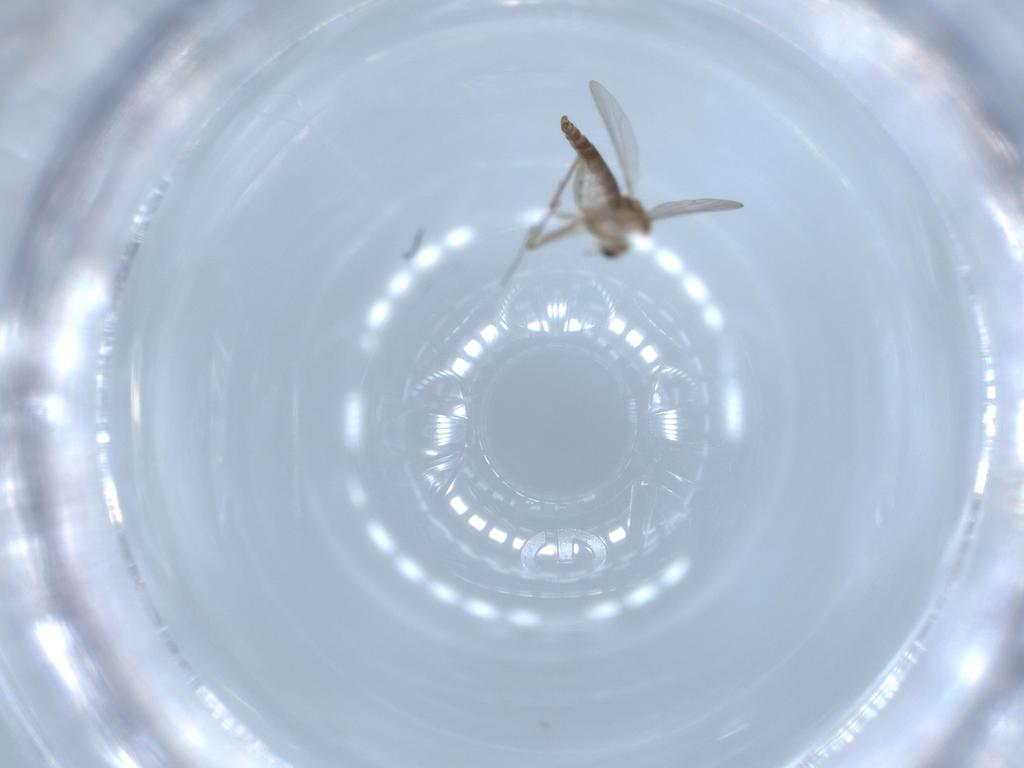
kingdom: Animalia
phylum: Arthropoda
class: Insecta
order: Diptera
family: Chironomidae
